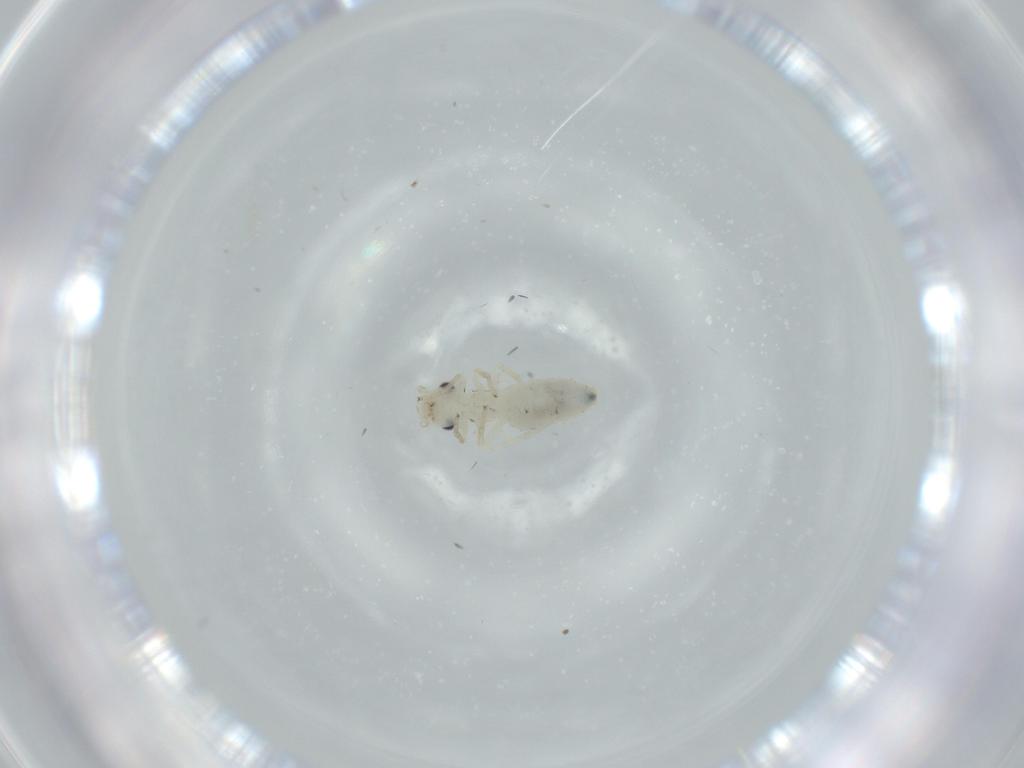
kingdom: Animalia
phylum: Arthropoda
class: Insecta
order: Psocodea
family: Caeciliusidae
